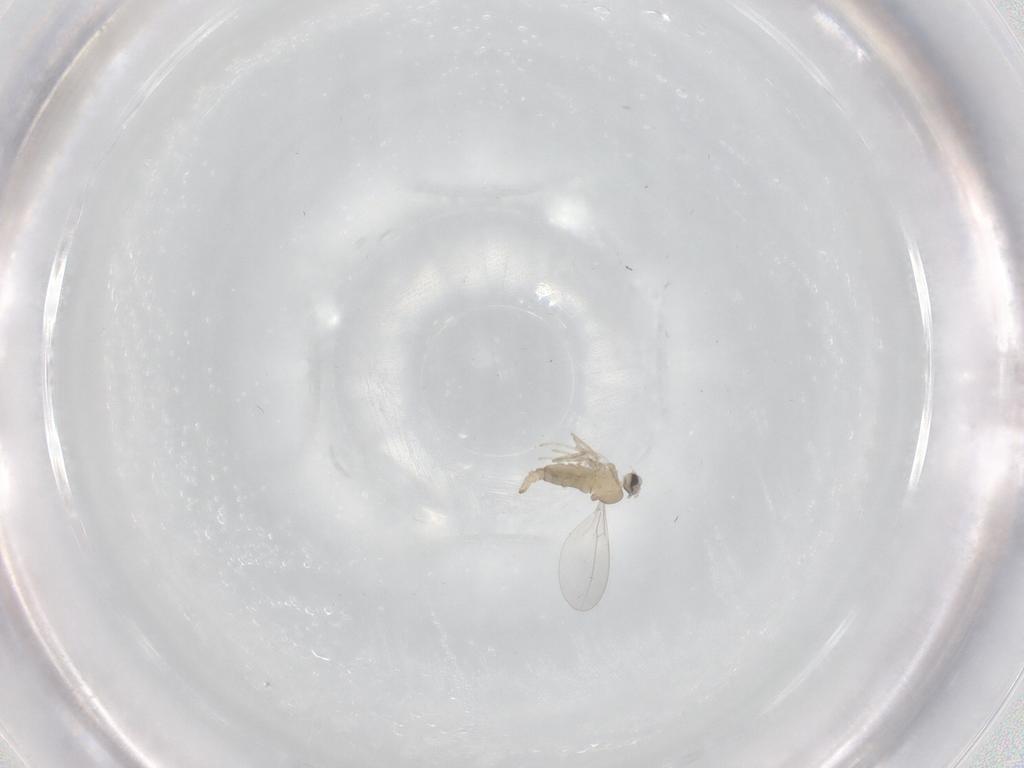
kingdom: Animalia
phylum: Arthropoda
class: Insecta
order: Diptera
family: Cecidomyiidae
